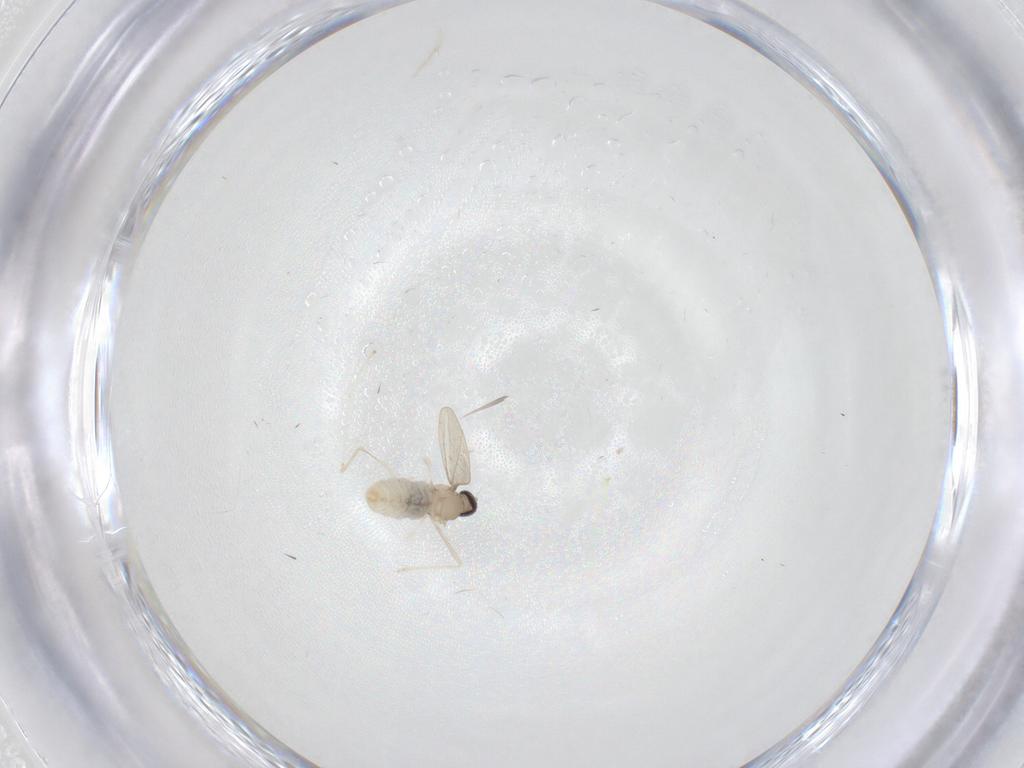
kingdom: Animalia
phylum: Arthropoda
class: Insecta
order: Diptera
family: Cecidomyiidae
